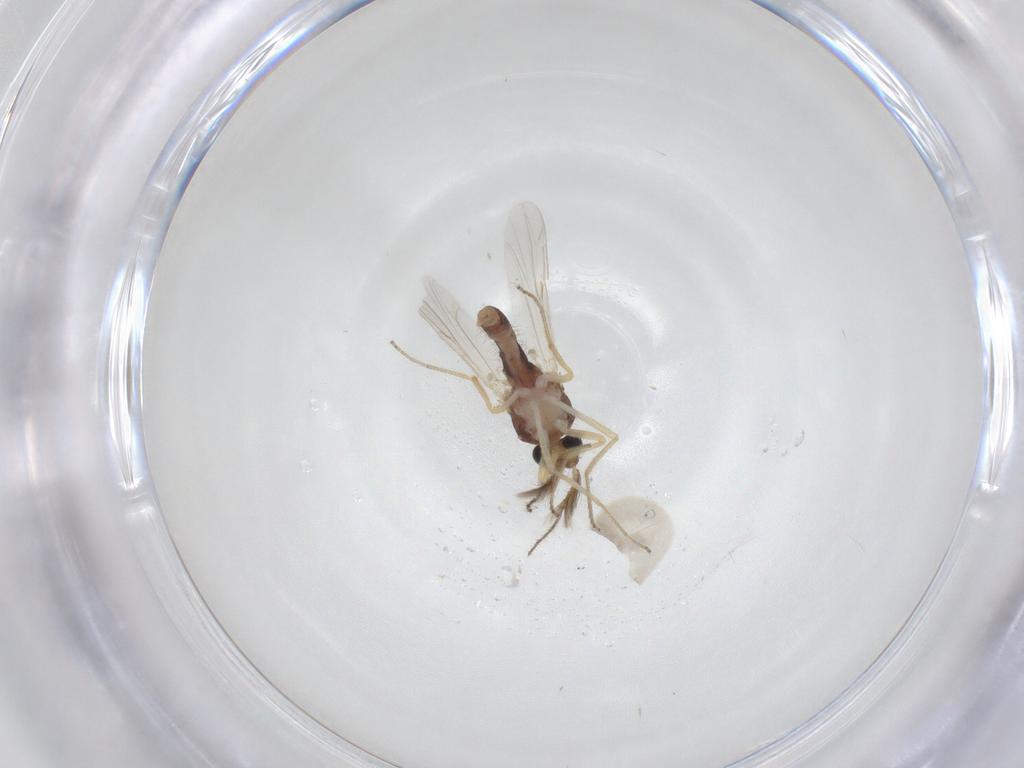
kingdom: Animalia
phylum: Arthropoda
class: Insecta
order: Diptera
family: Ceratopogonidae
